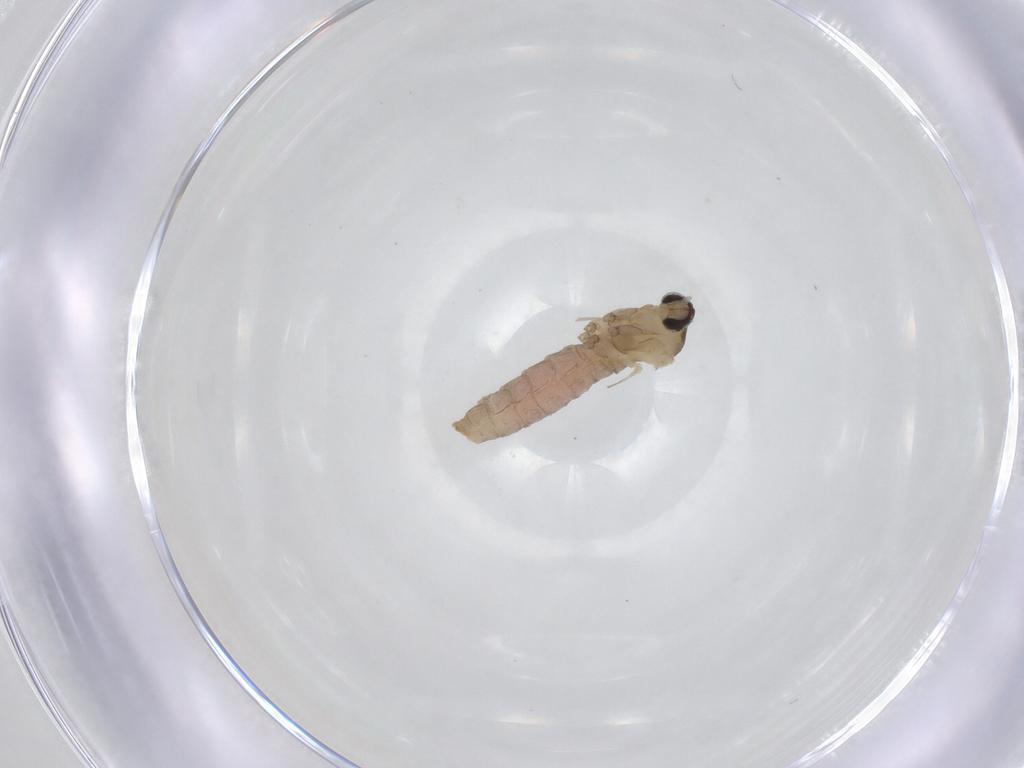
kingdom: Animalia
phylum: Arthropoda
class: Insecta
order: Diptera
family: Cecidomyiidae
